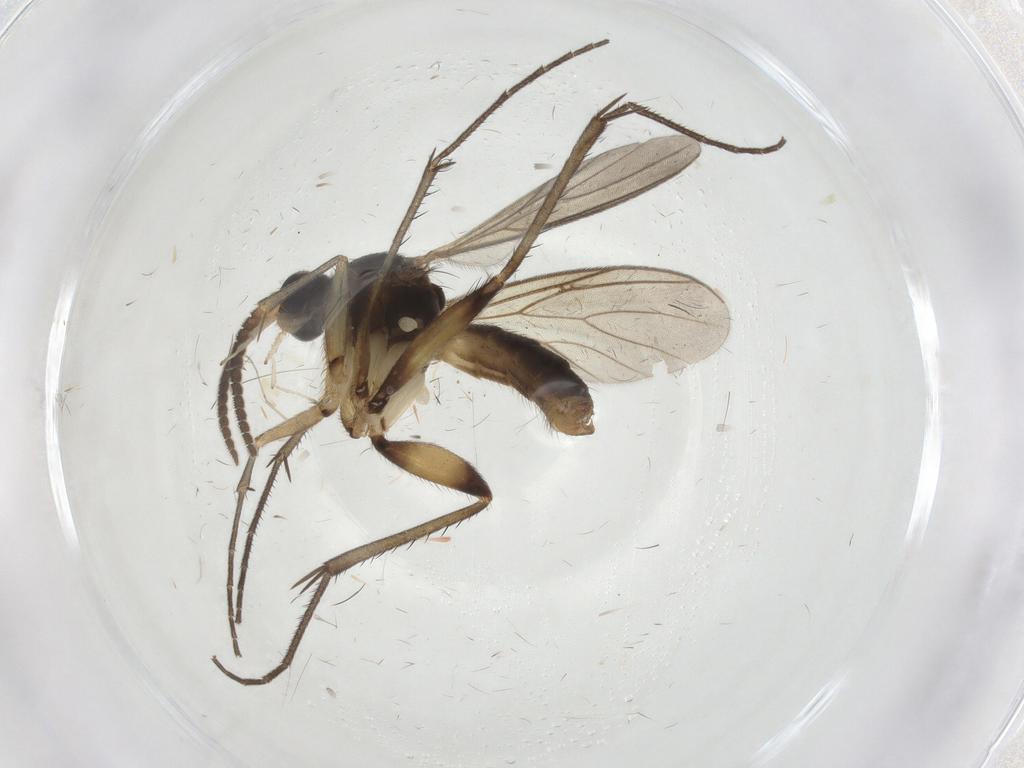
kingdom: Animalia
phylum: Arthropoda
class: Insecta
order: Diptera
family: Mycetophilidae
